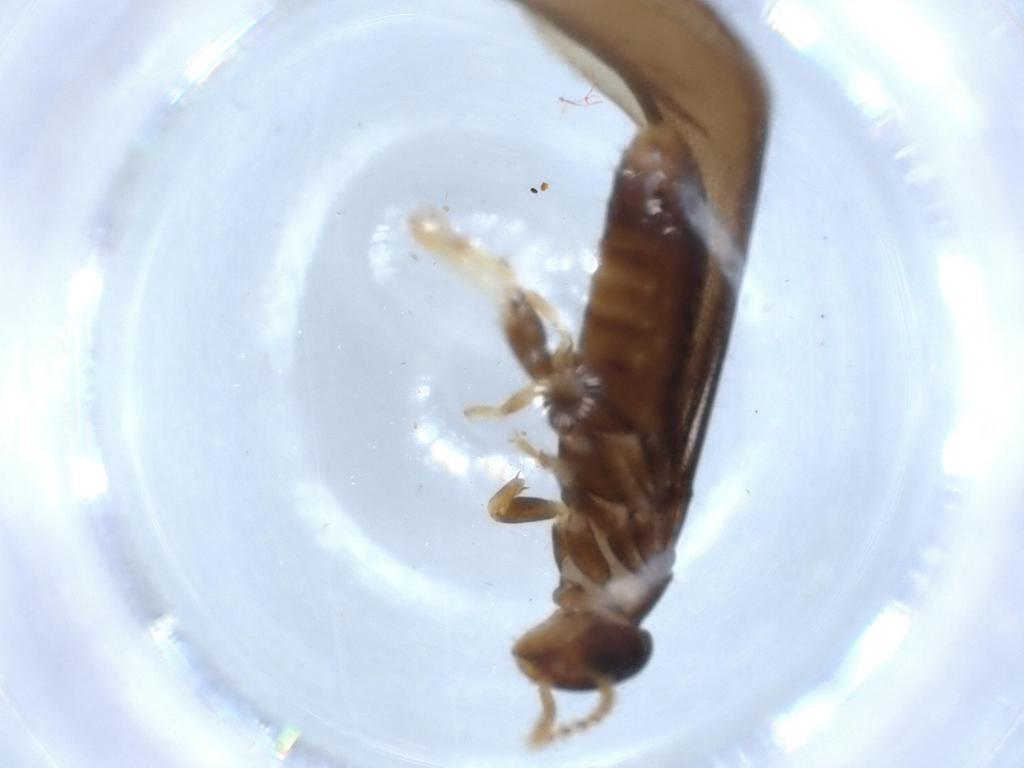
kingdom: Animalia
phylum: Arthropoda
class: Insecta
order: Blattodea
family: Blattidae
